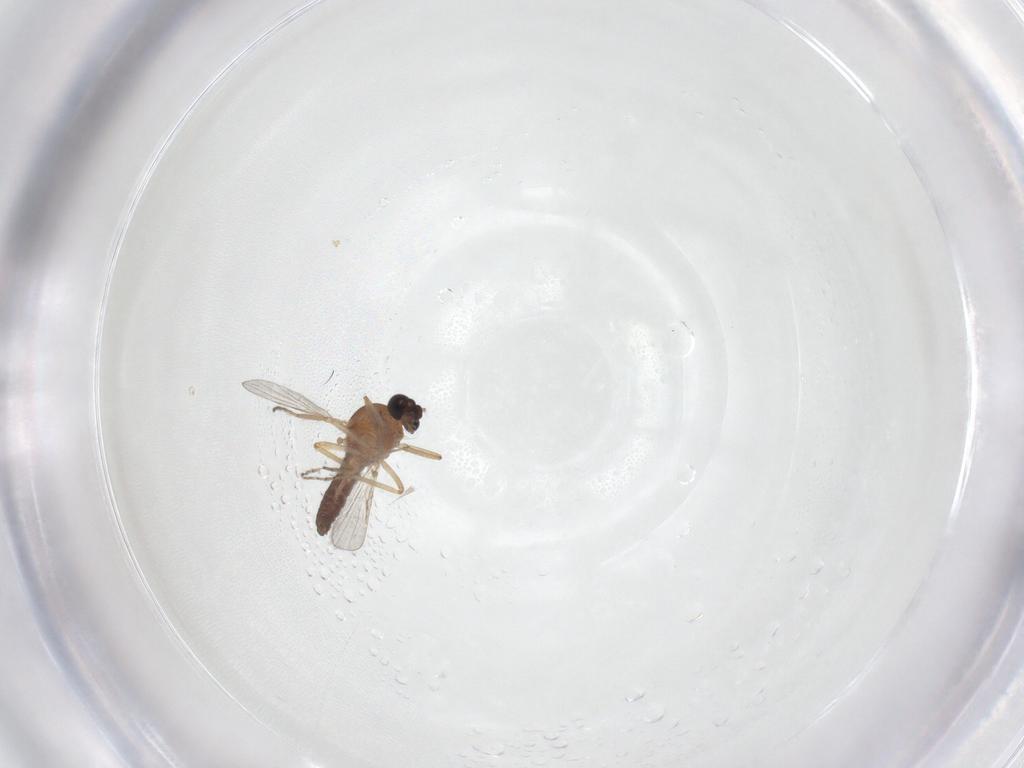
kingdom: Animalia
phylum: Arthropoda
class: Insecta
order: Diptera
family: Ceratopogonidae
